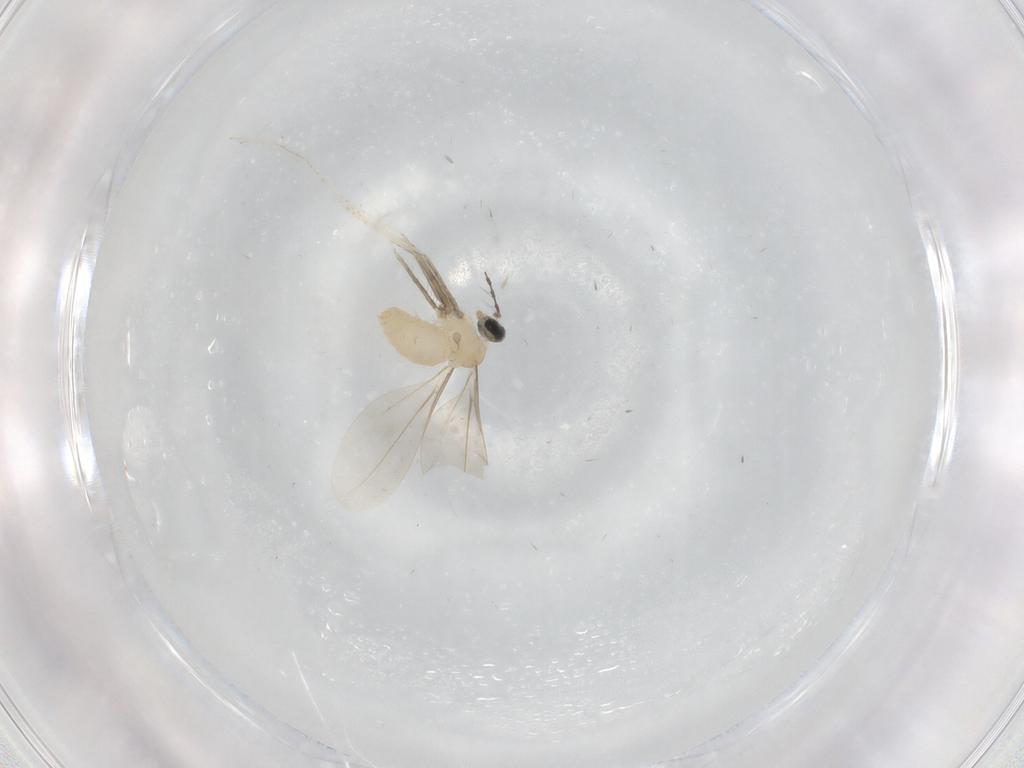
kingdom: Animalia
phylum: Arthropoda
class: Insecta
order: Diptera
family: Cecidomyiidae
